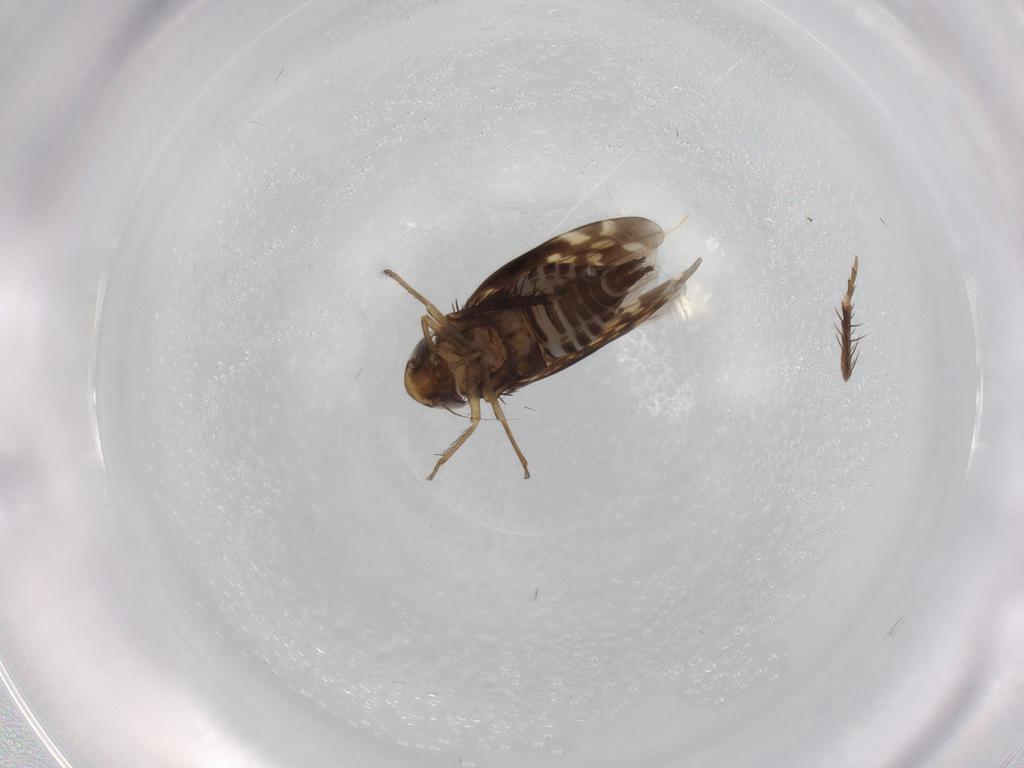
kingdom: Animalia
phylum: Arthropoda
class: Insecta
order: Hemiptera
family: Cicadellidae
